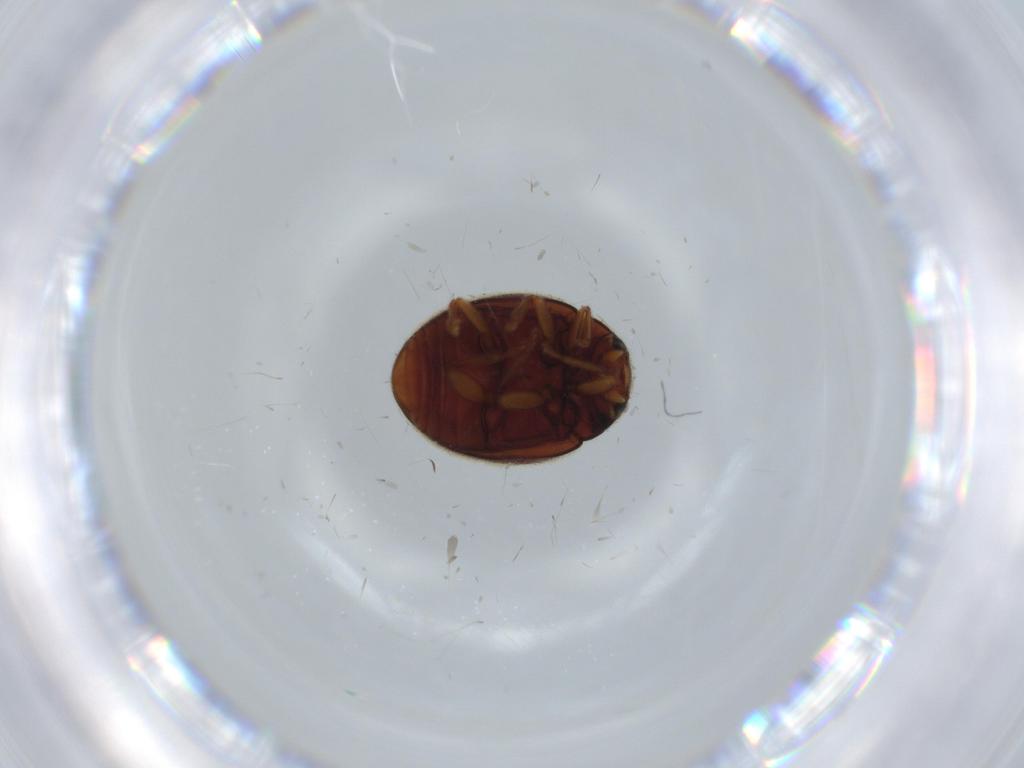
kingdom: Animalia
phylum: Arthropoda
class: Insecta
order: Coleoptera
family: Coccinellidae
